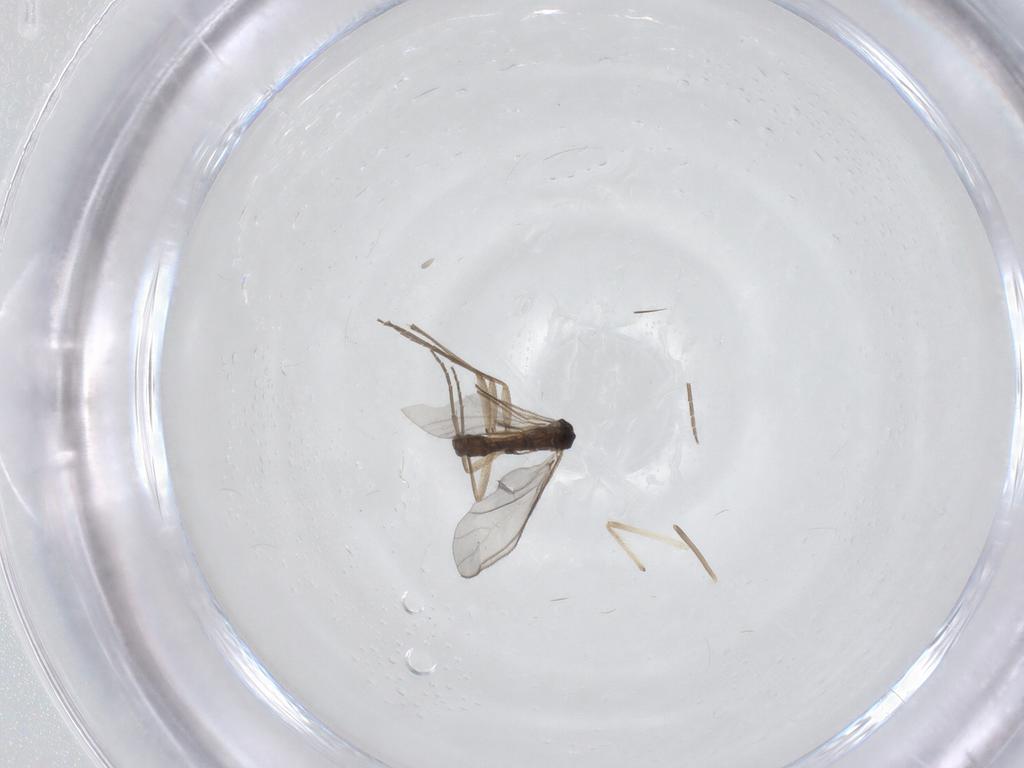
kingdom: Animalia
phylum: Arthropoda
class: Insecta
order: Diptera
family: Sciaridae
